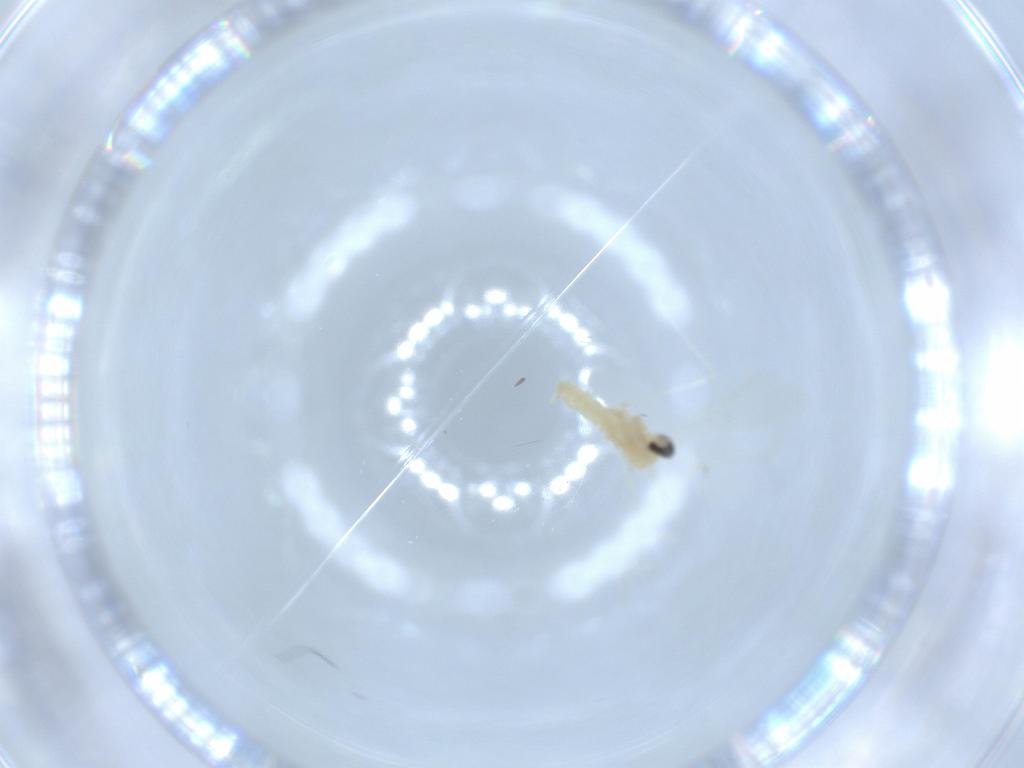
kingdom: Animalia
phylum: Arthropoda
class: Insecta
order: Diptera
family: Cecidomyiidae
